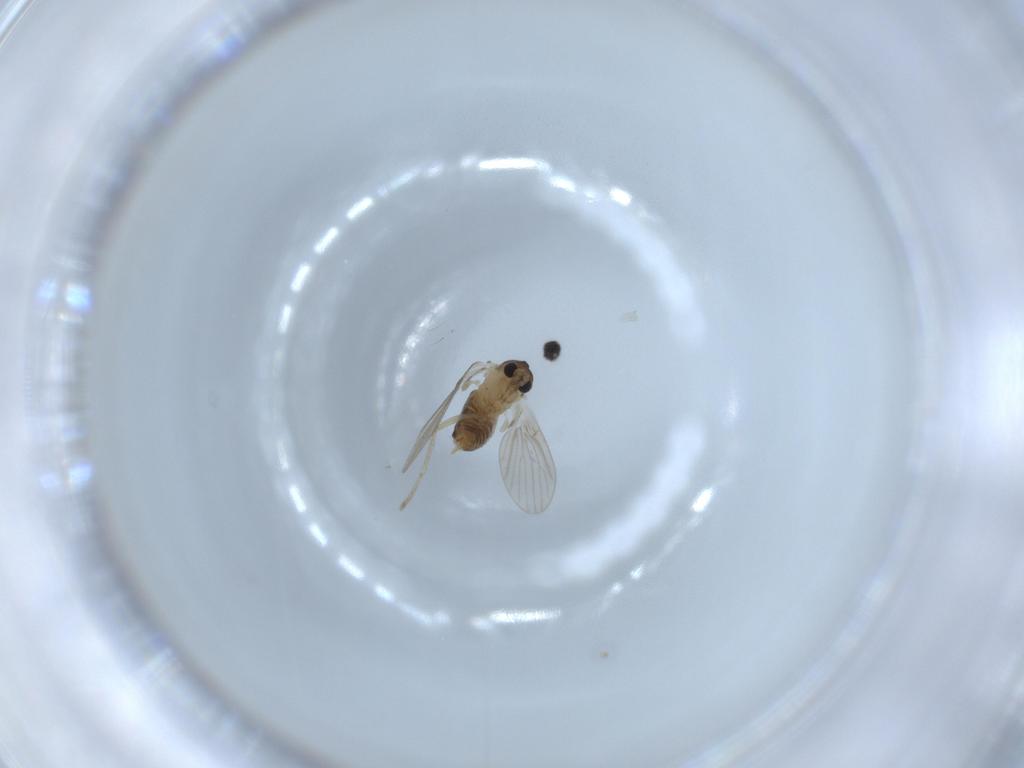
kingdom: Animalia
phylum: Arthropoda
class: Insecta
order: Diptera
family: Psychodidae
